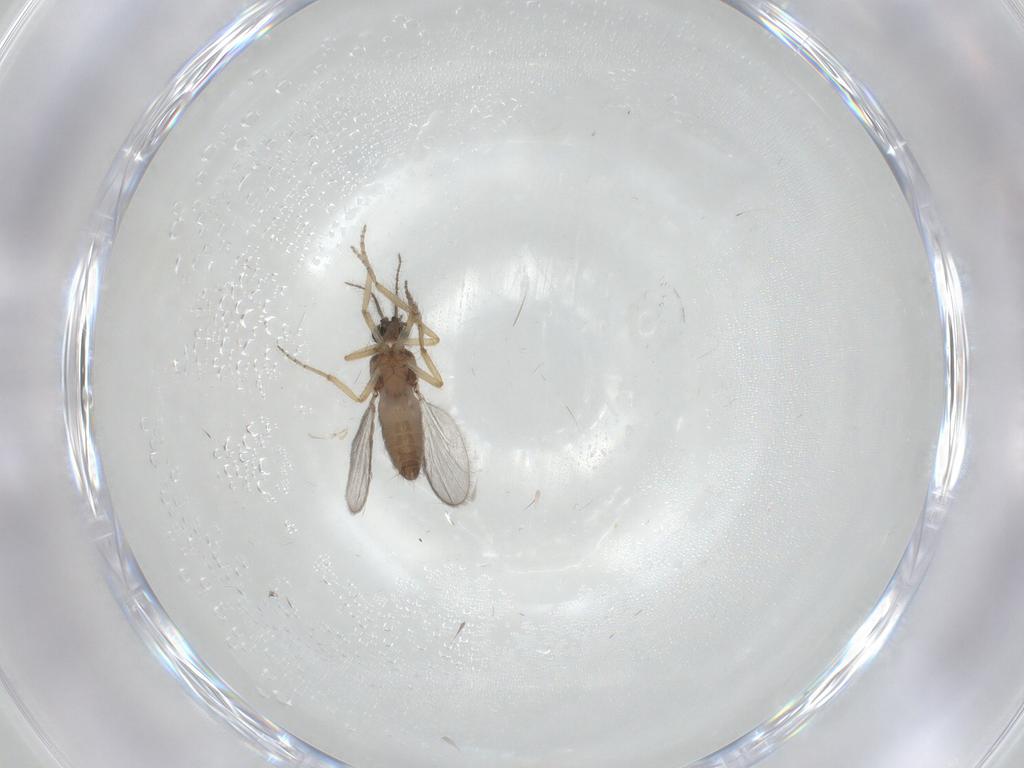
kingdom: Animalia
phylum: Arthropoda
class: Insecta
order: Diptera
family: Ceratopogonidae
